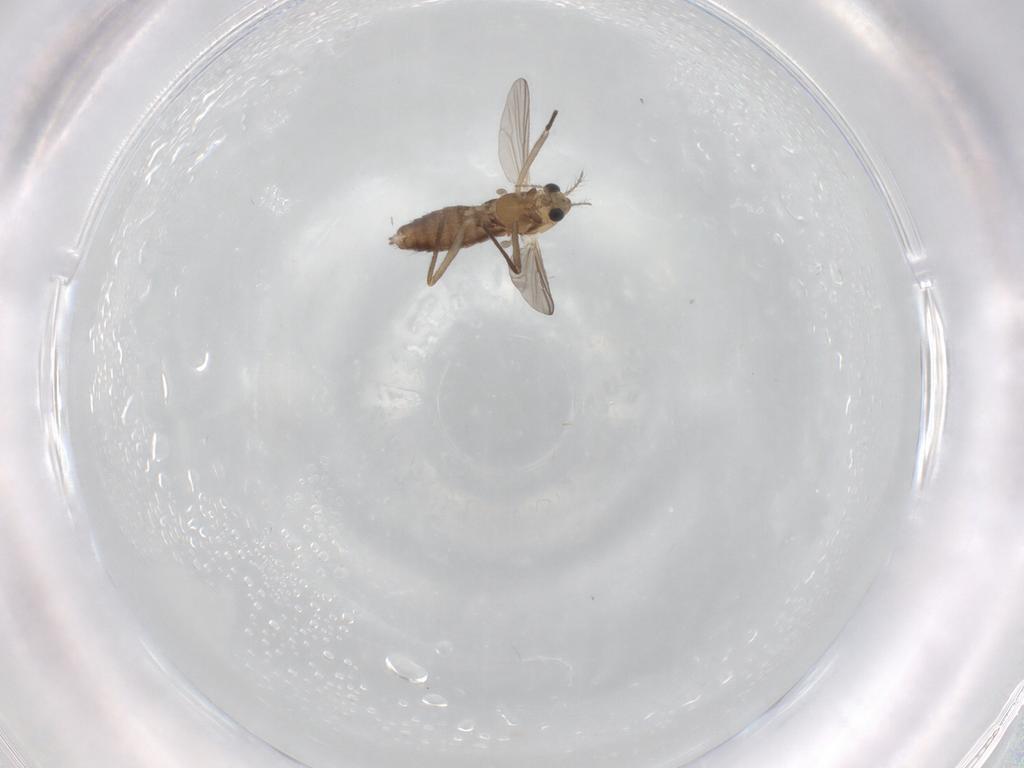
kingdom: Animalia
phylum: Arthropoda
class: Insecta
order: Diptera
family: Chironomidae
